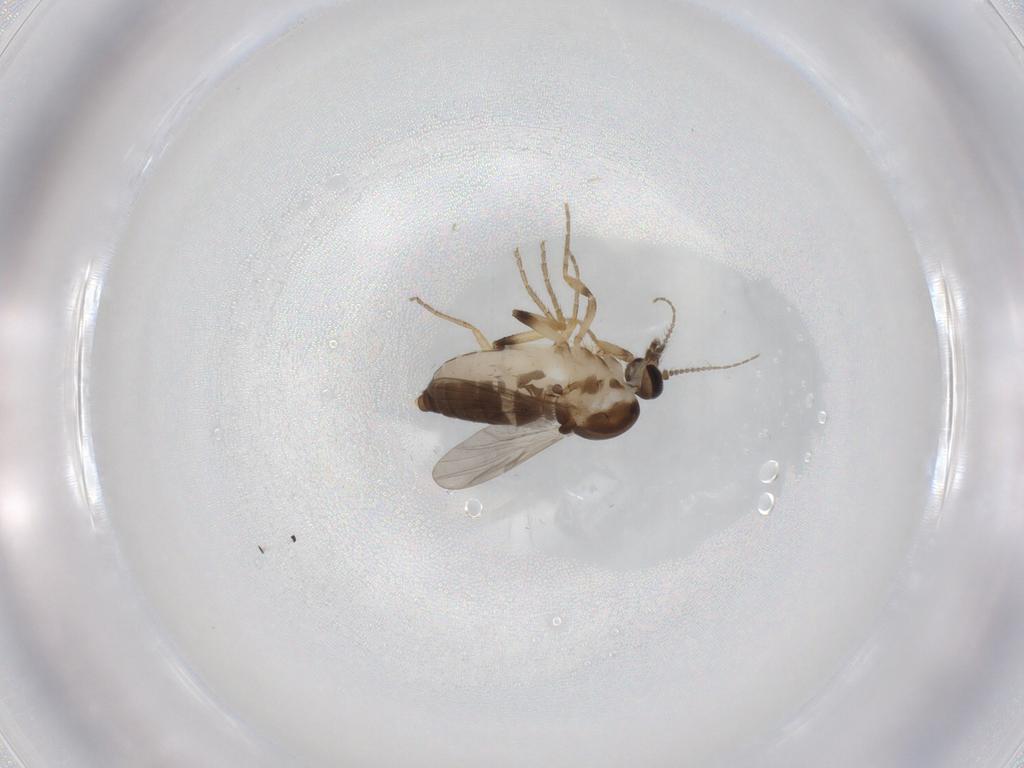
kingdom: Animalia
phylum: Arthropoda
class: Insecta
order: Diptera
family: Ceratopogonidae
